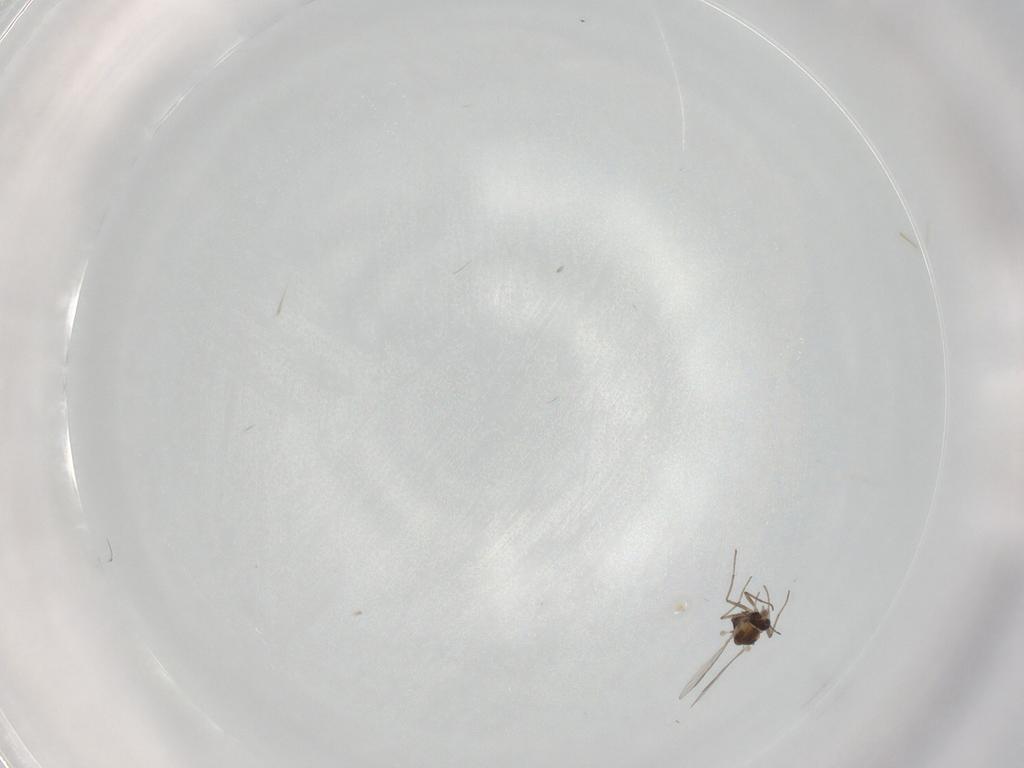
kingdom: Animalia
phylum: Arthropoda
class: Insecta
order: Diptera
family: Chironomidae
